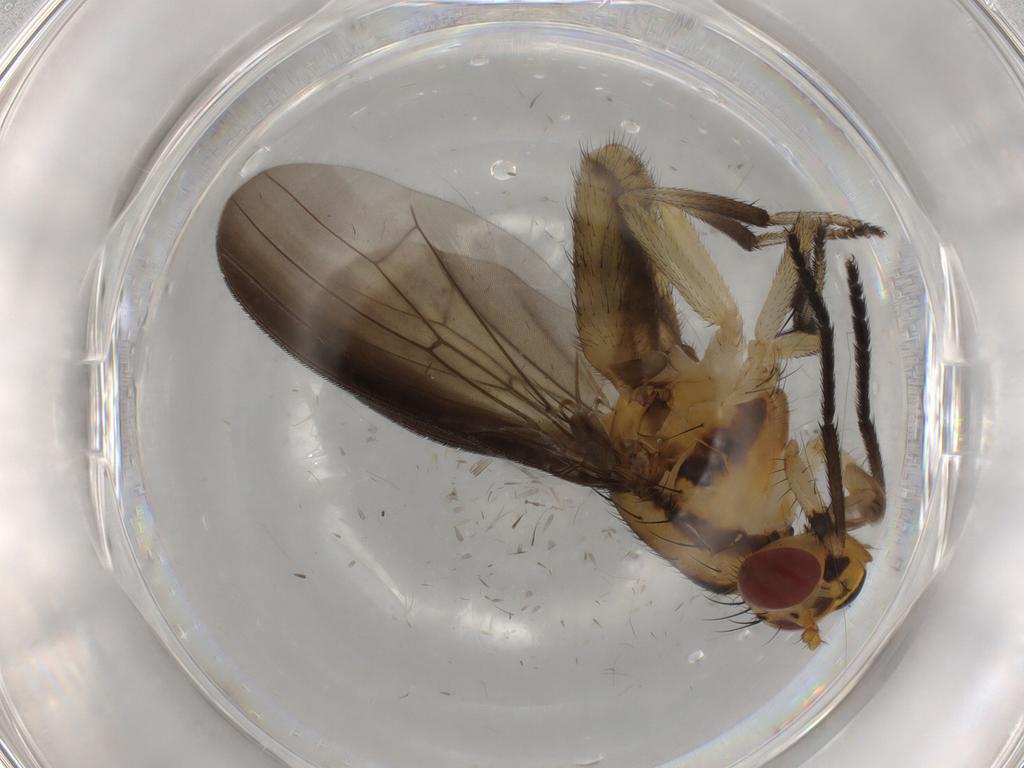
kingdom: Animalia
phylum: Arthropoda
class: Insecta
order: Diptera
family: Lauxaniidae
